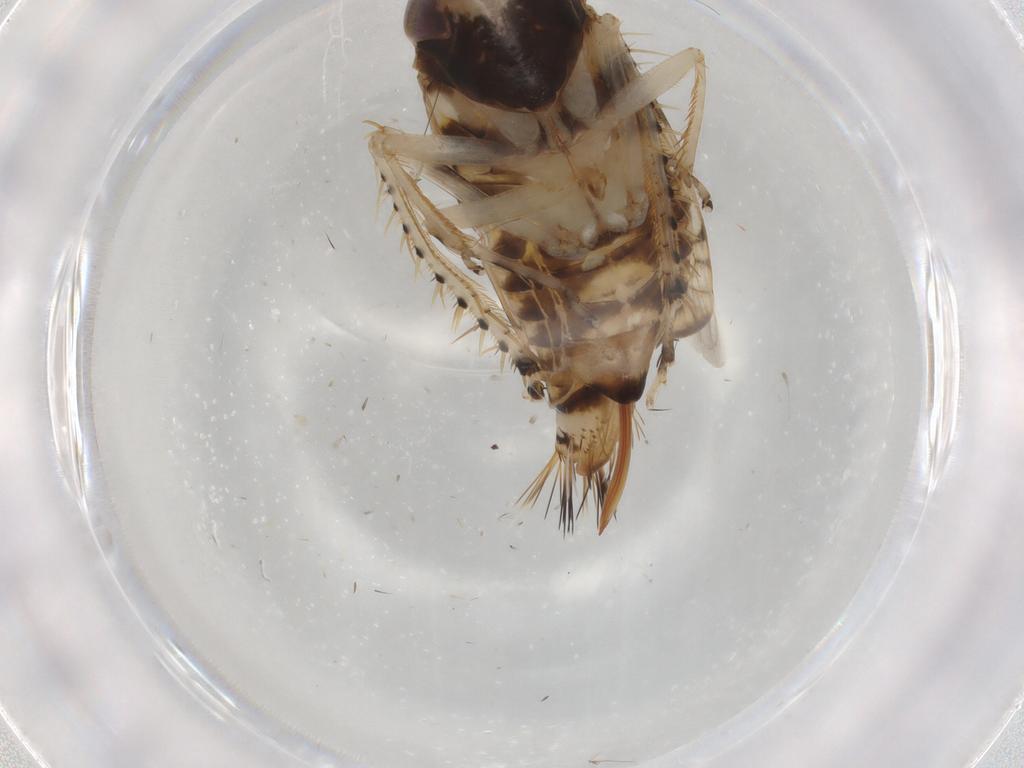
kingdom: Animalia
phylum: Arthropoda
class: Insecta
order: Hemiptera
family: Cicadellidae
